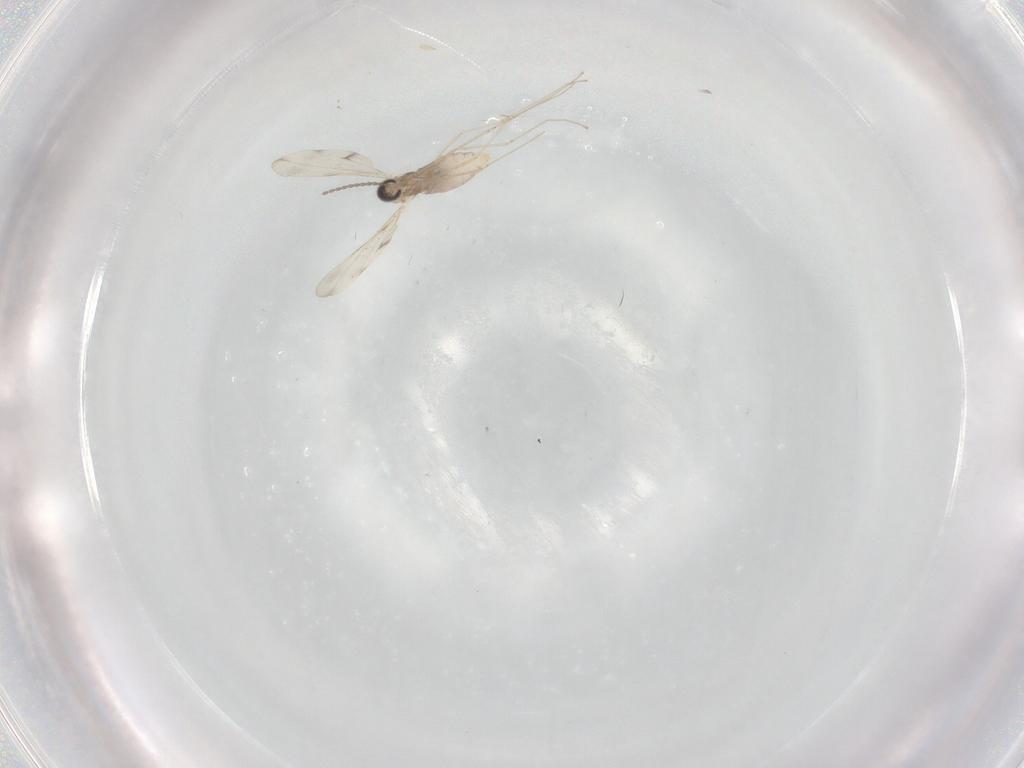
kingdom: Animalia
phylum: Arthropoda
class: Insecta
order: Diptera
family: Cecidomyiidae
